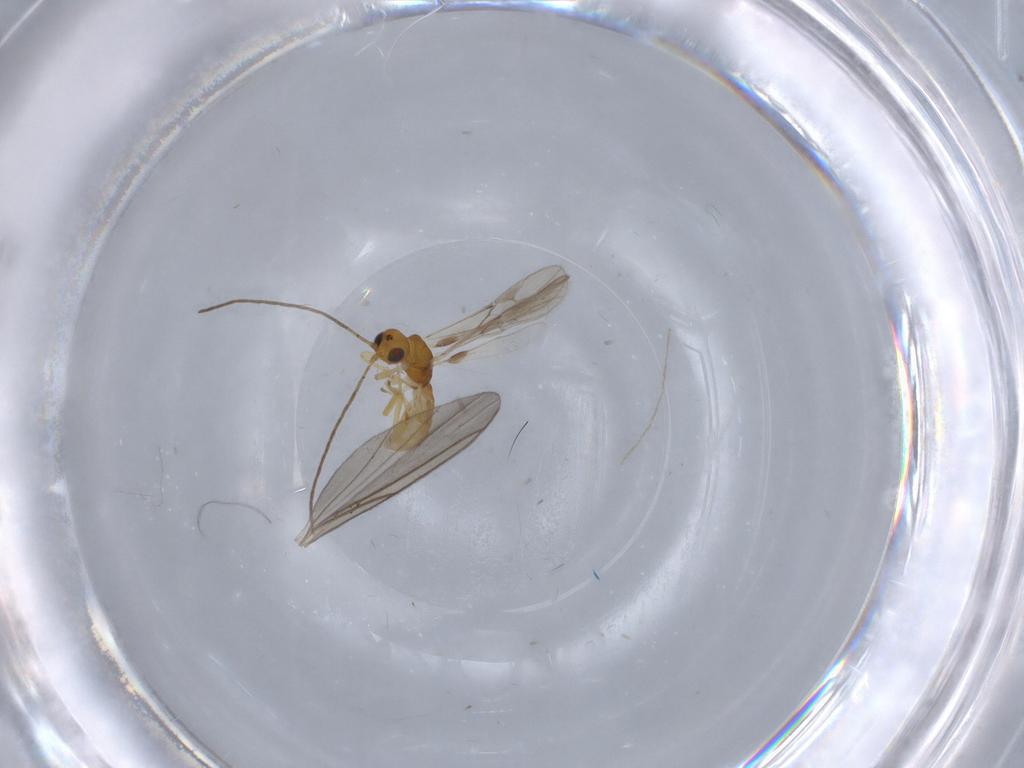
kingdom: Animalia
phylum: Arthropoda
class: Insecta
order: Hymenoptera
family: Braconidae
